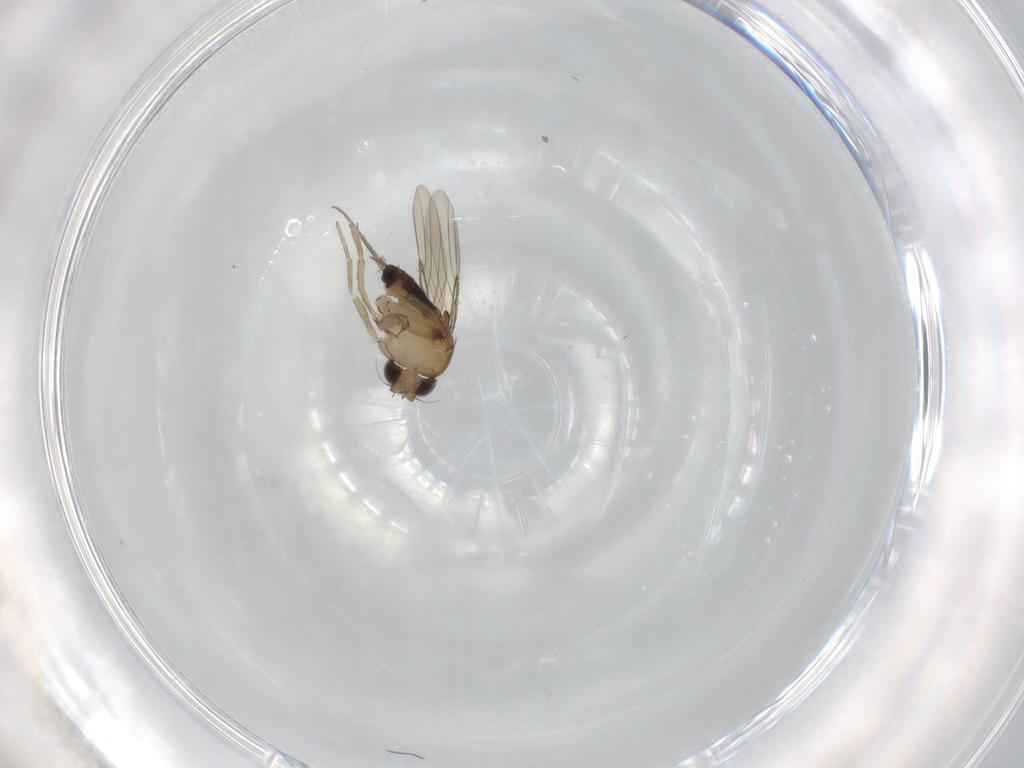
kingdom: Animalia
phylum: Arthropoda
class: Insecta
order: Diptera
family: Phoridae
